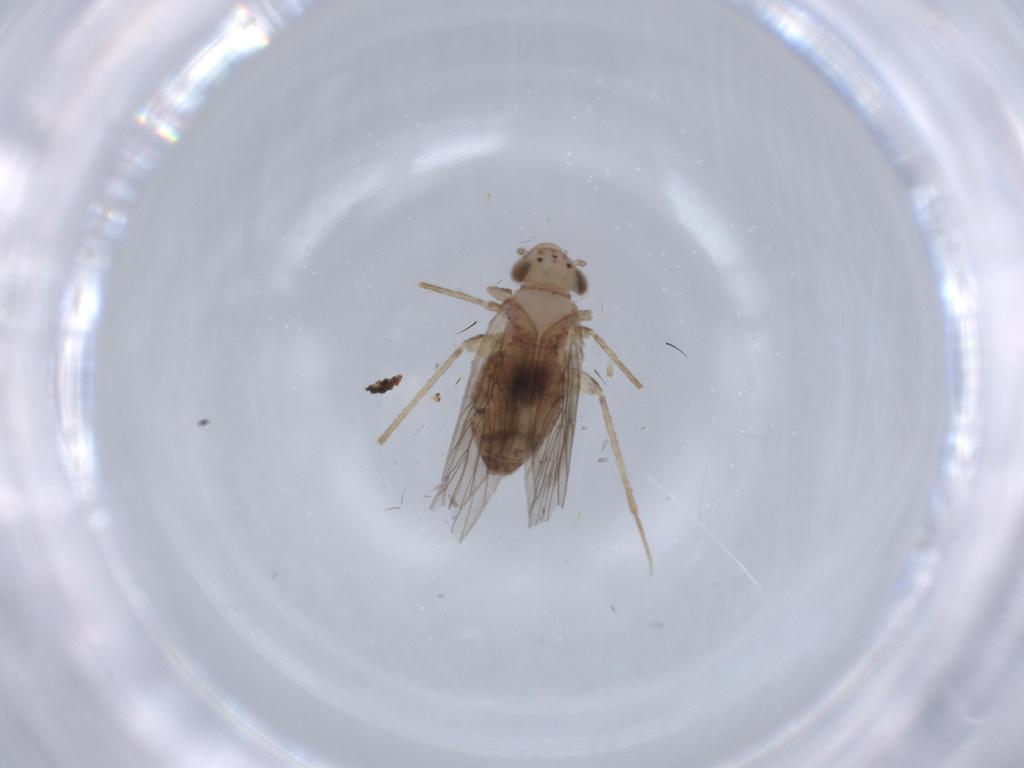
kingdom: Animalia
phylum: Arthropoda
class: Insecta
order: Psocodea
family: Lepidopsocidae
